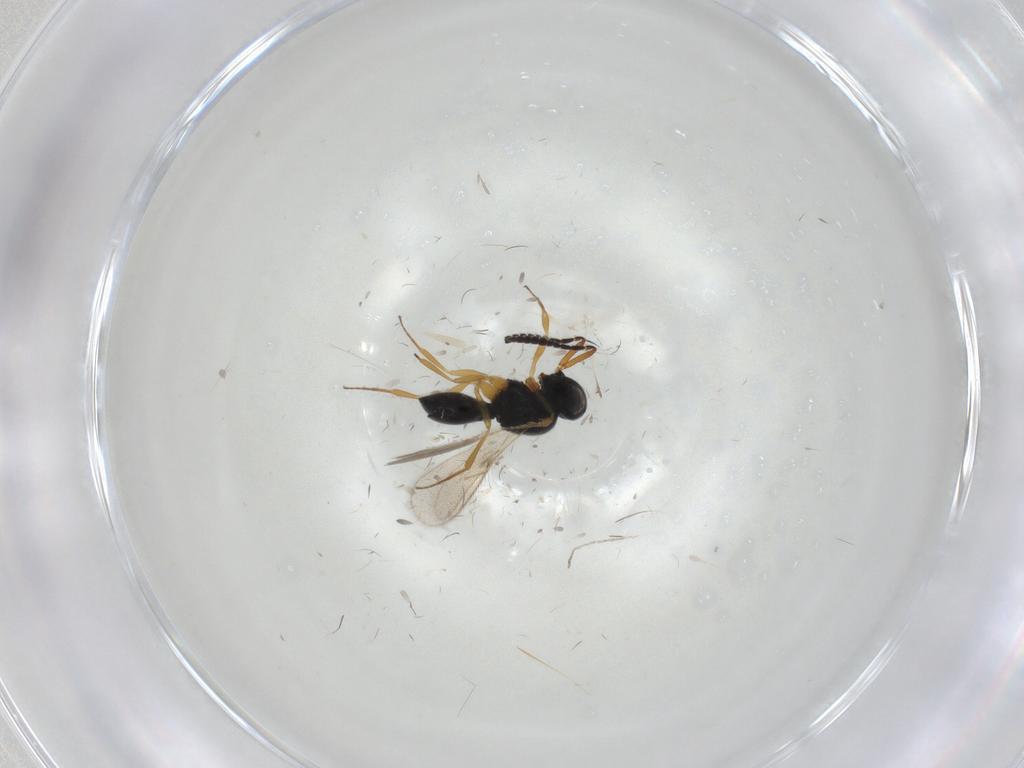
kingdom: Animalia
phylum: Arthropoda
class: Insecta
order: Hymenoptera
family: Scelionidae
